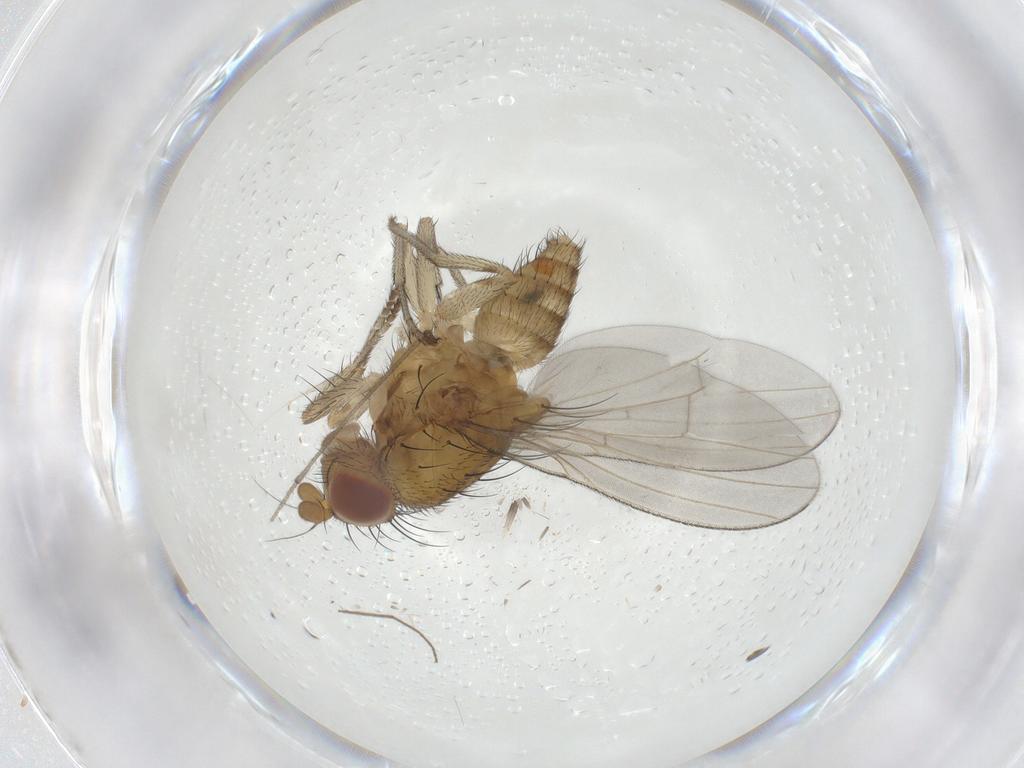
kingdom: Animalia
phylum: Arthropoda
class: Insecta
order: Diptera
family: Lauxaniidae
